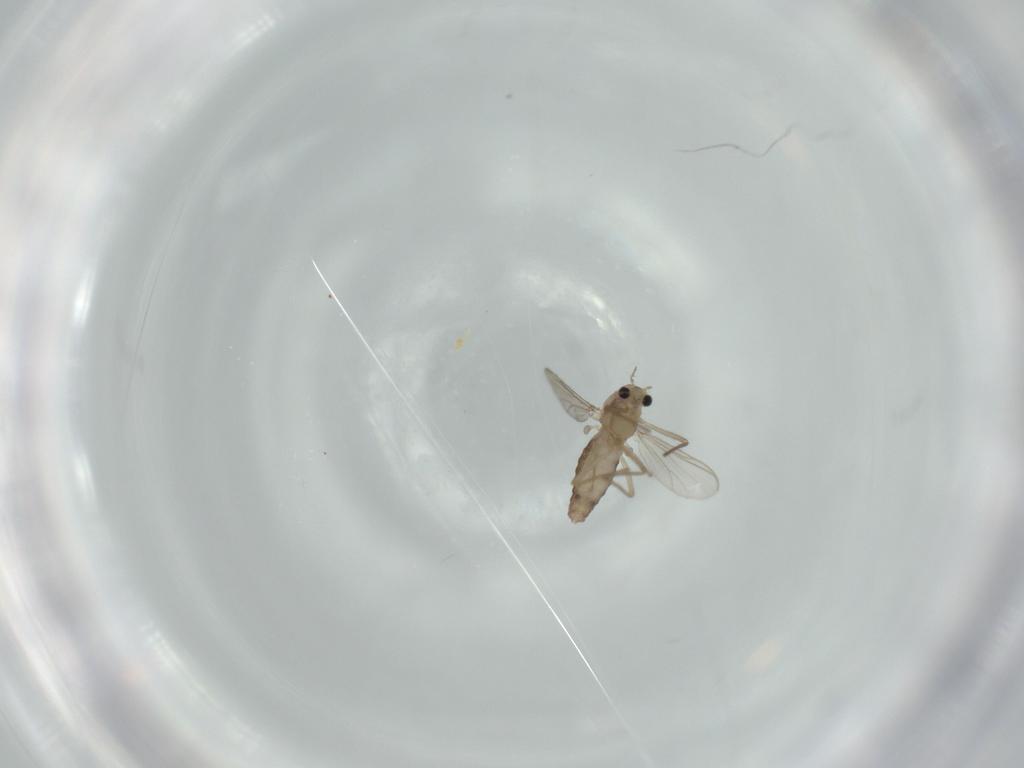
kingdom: Animalia
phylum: Arthropoda
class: Insecta
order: Diptera
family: Chironomidae
